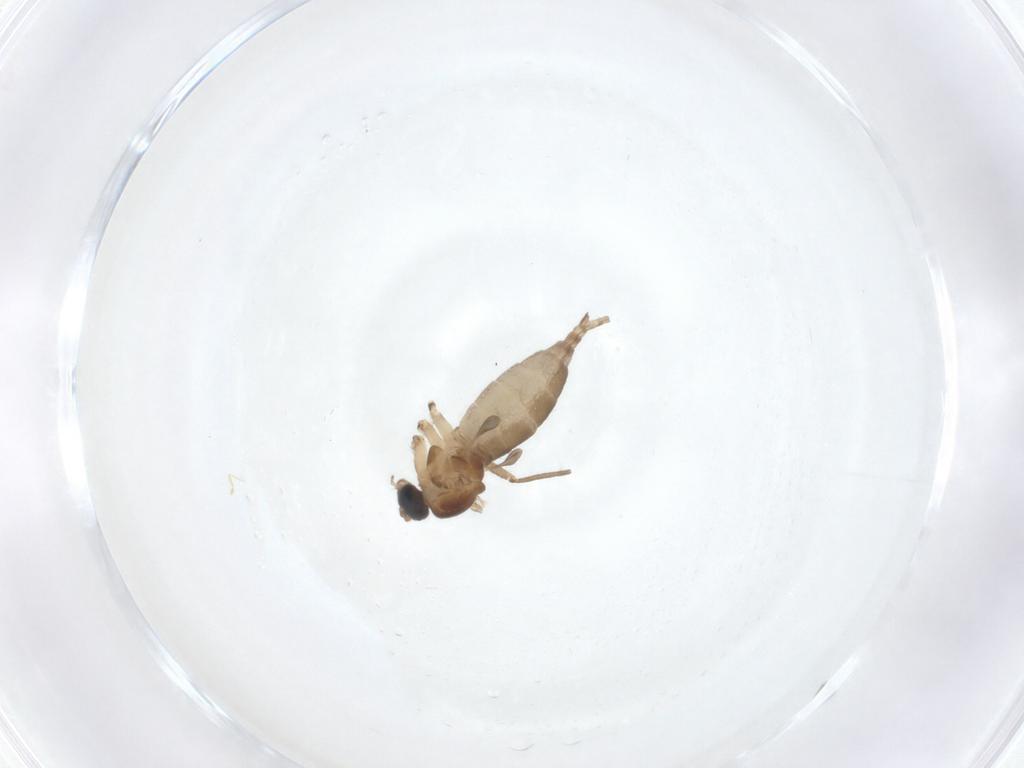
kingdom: Animalia
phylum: Arthropoda
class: Insecta
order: Diptera
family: Sciaridae
